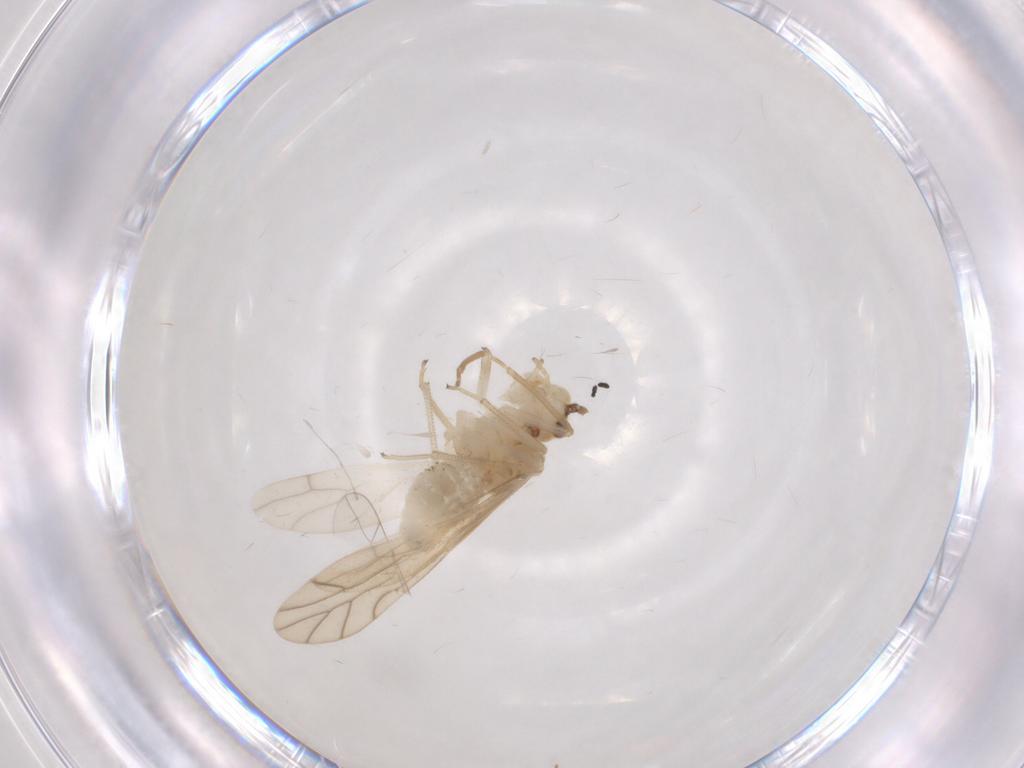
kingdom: Animalia
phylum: Arthropoda
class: Insecta
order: Psocodea
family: Caeciliusidae
